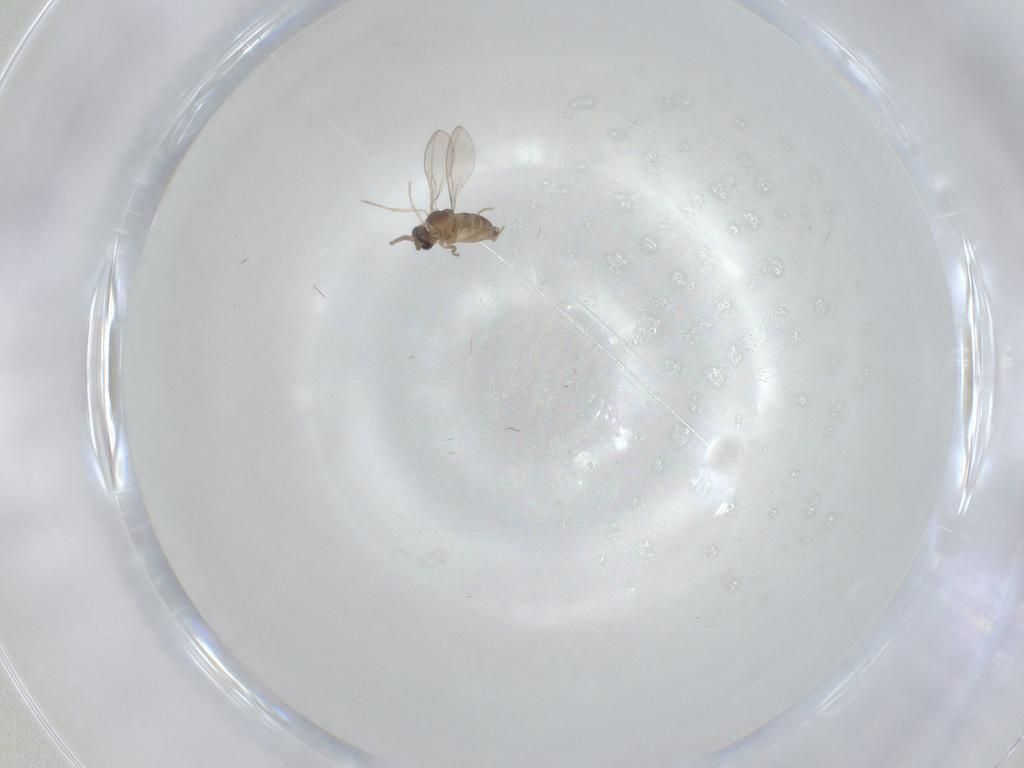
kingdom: Animalia
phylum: Arthropoda
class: Insecta
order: Diptera
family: Cecidomyiidae
